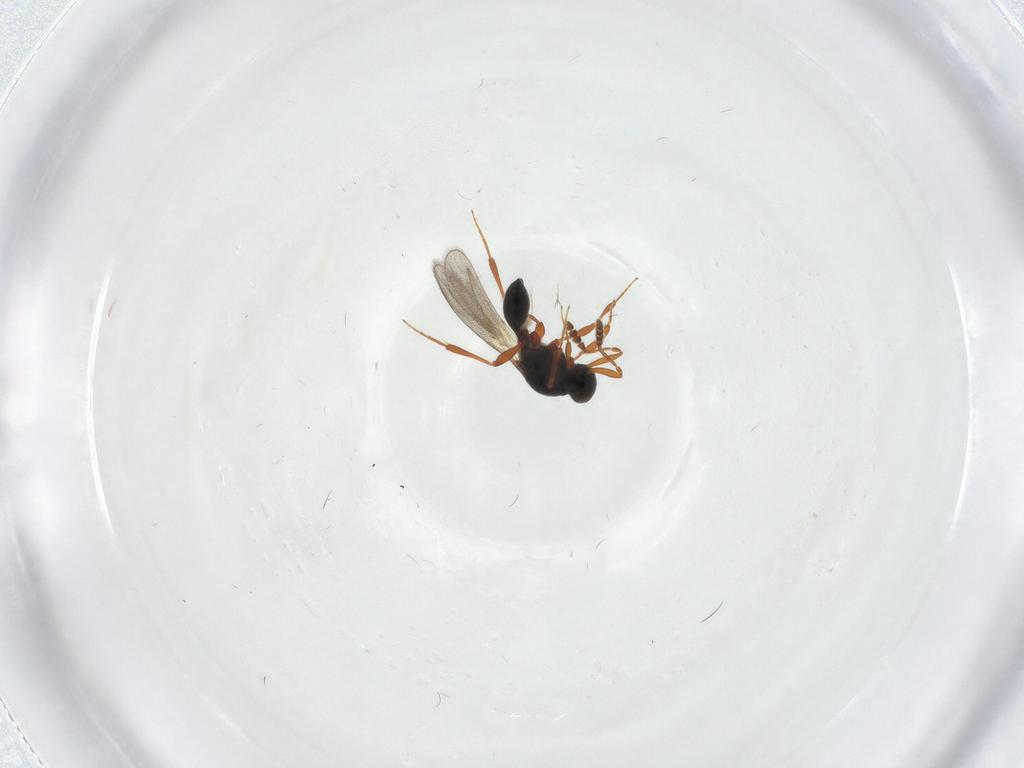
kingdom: Animalia
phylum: Arthropoda
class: Insecta
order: Hymenoptera
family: Platygastridae
